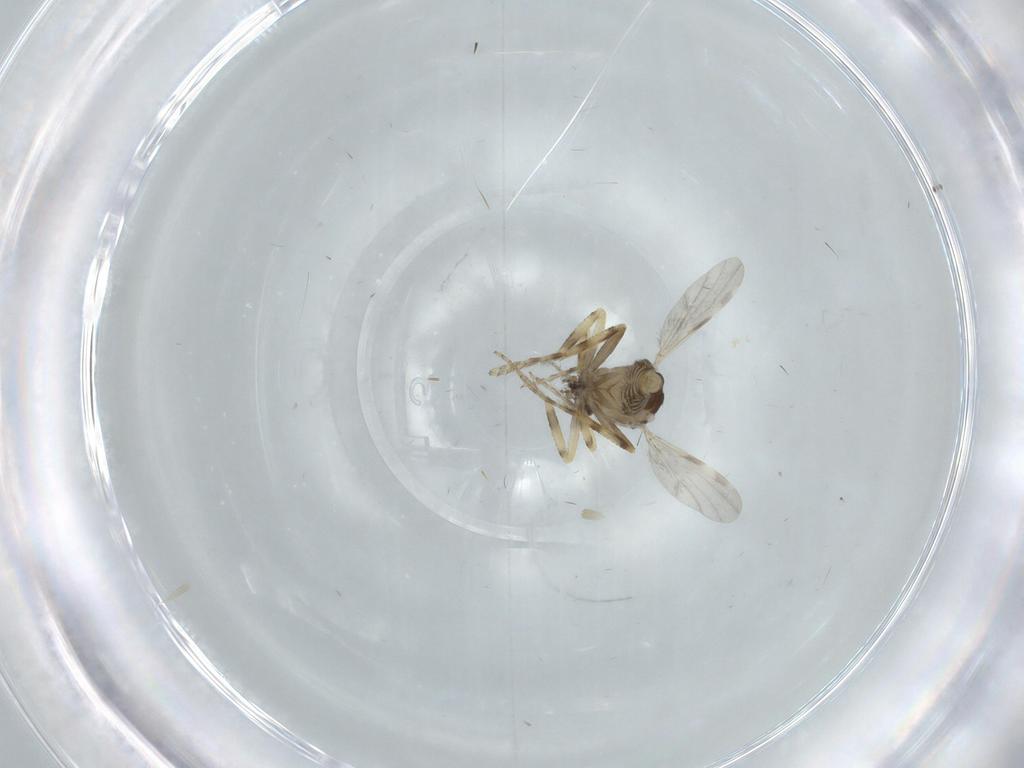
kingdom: Animalia
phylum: Arthropoda
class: Insecta
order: Diptera
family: Ceratopogonidae
